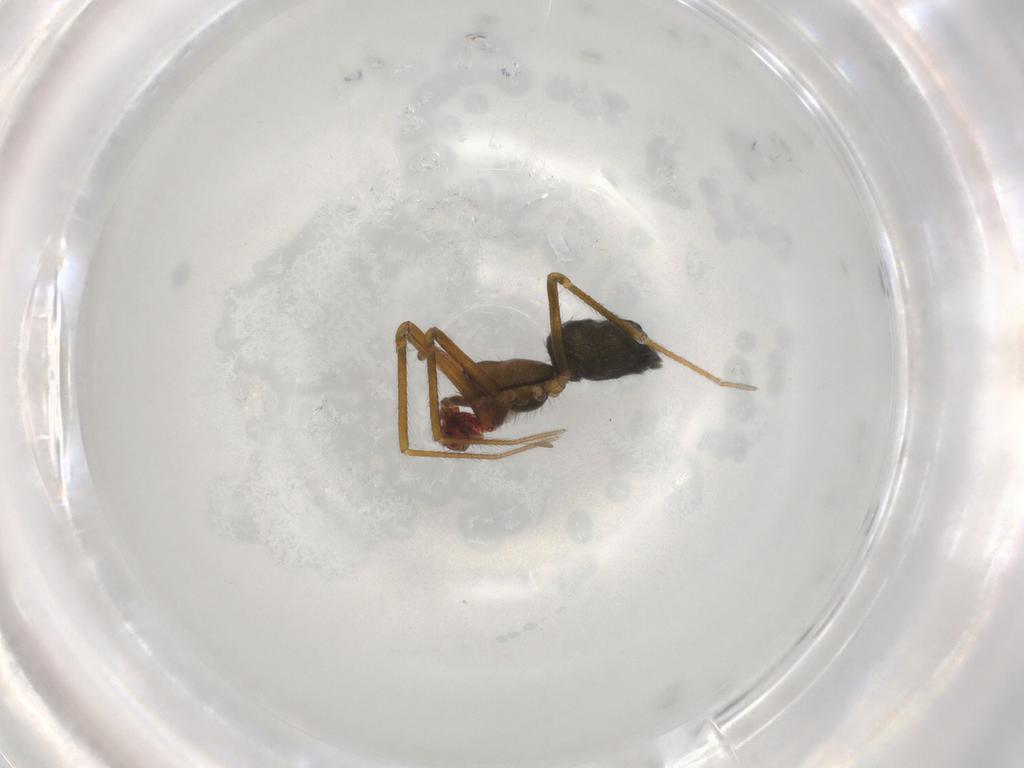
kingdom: Animalia
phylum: Arthropoda
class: Arachnida
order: Araneae
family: Linyphiidae
